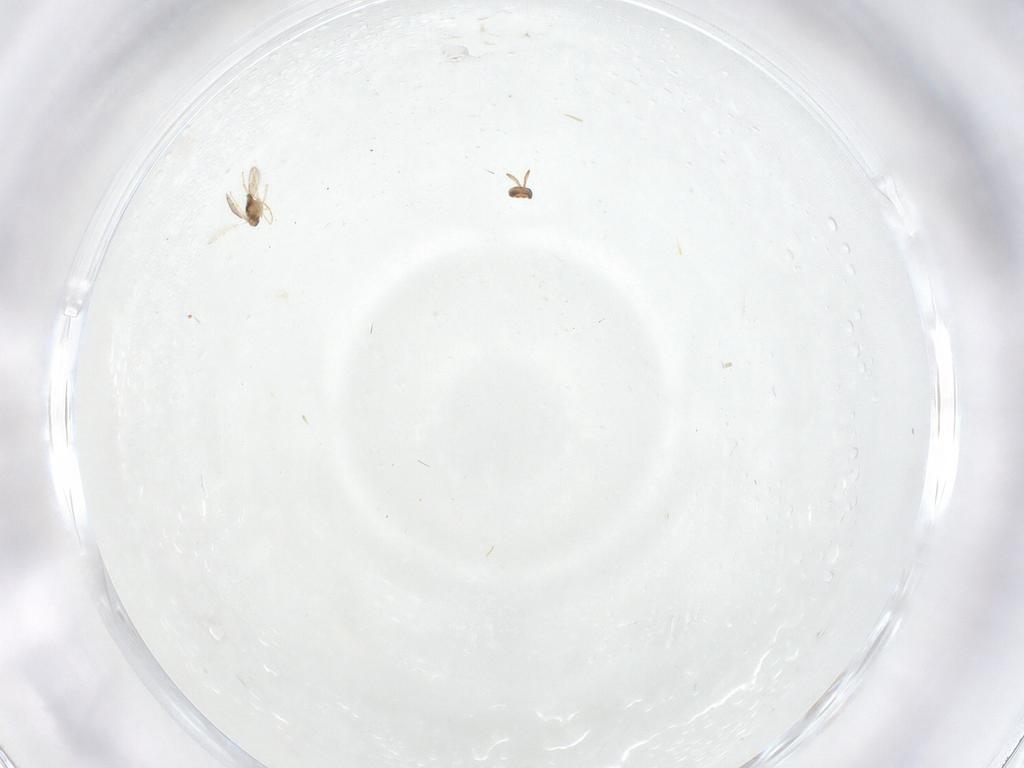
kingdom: Animalia
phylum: Arthropoda
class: Insecta
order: Hymenoptera
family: Aphelinidae
